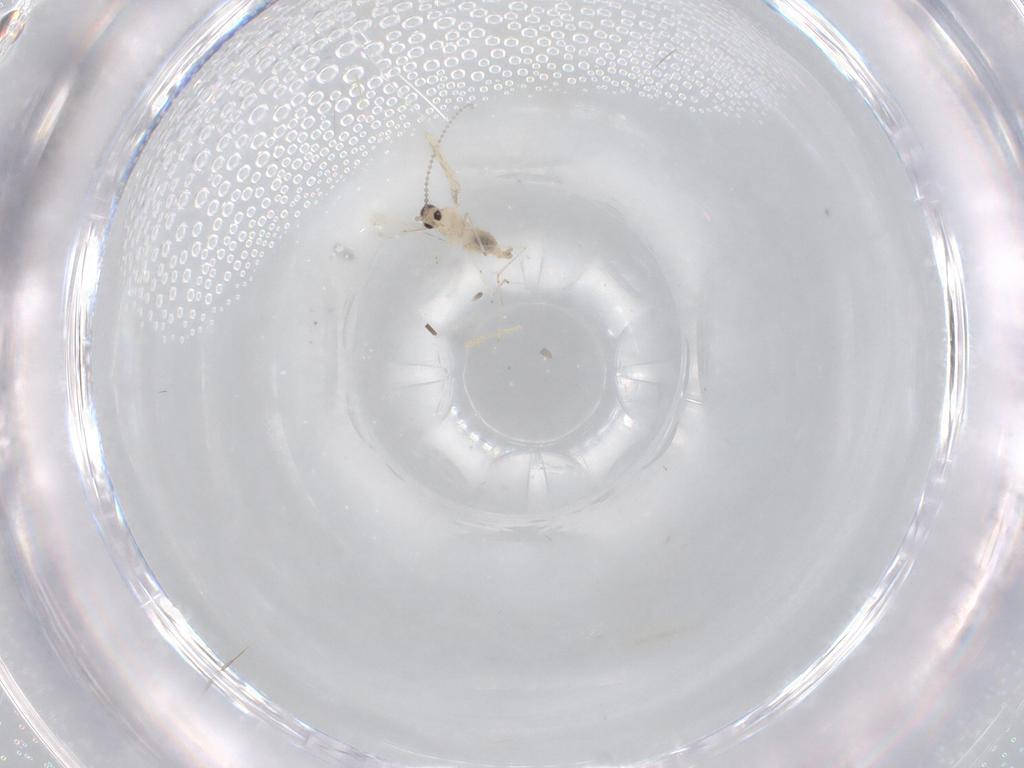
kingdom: Animalia
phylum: Arthropoda
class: Insecta
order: Diptera
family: Cecidomyiidae
